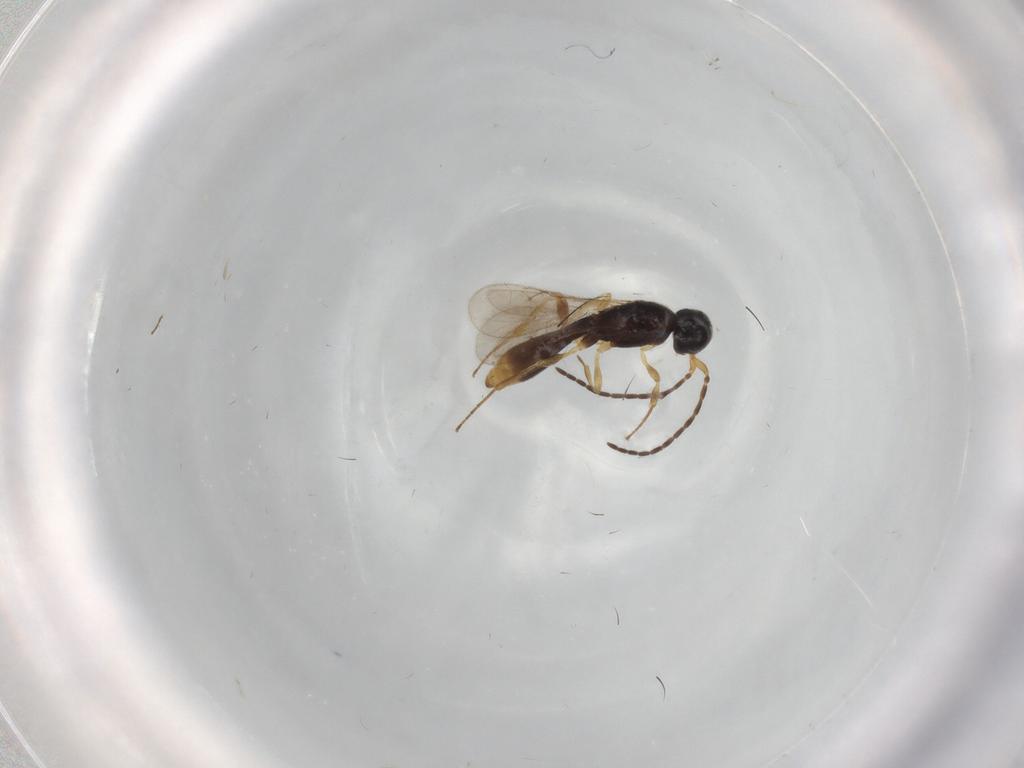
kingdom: Animalia
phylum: Arthropoda
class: Insecta
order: Hymenoptera
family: Scelionidae
